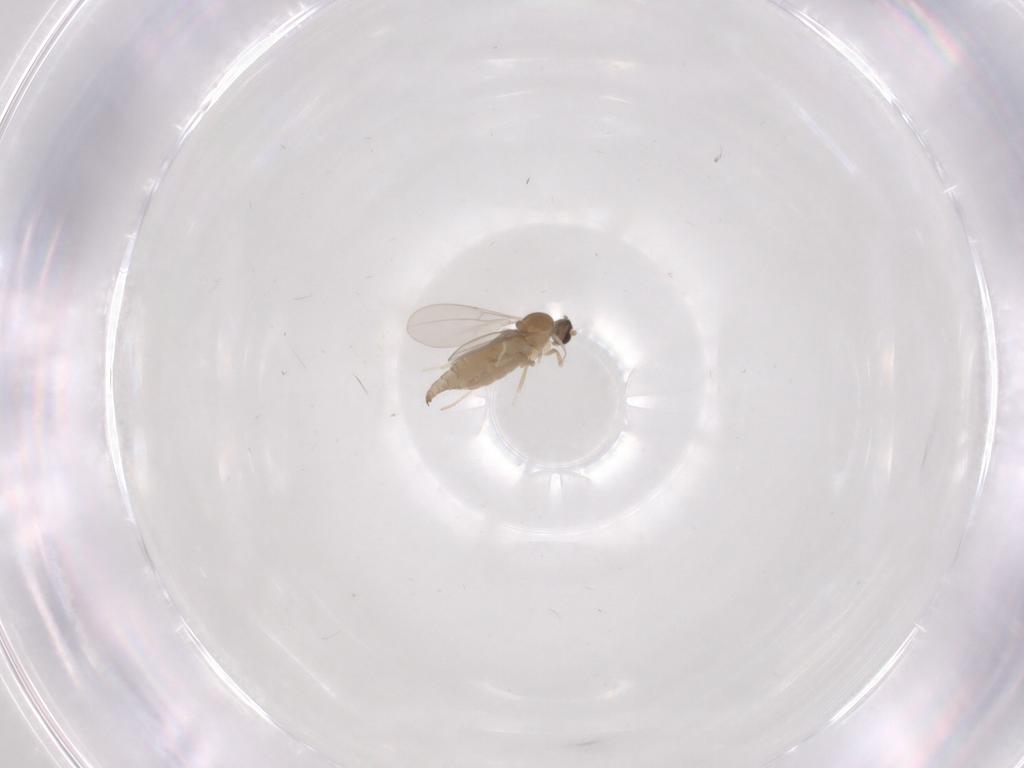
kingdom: Animalia
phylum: Arthropoda
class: Insecta
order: Diptera
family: Cecidomyiidae
